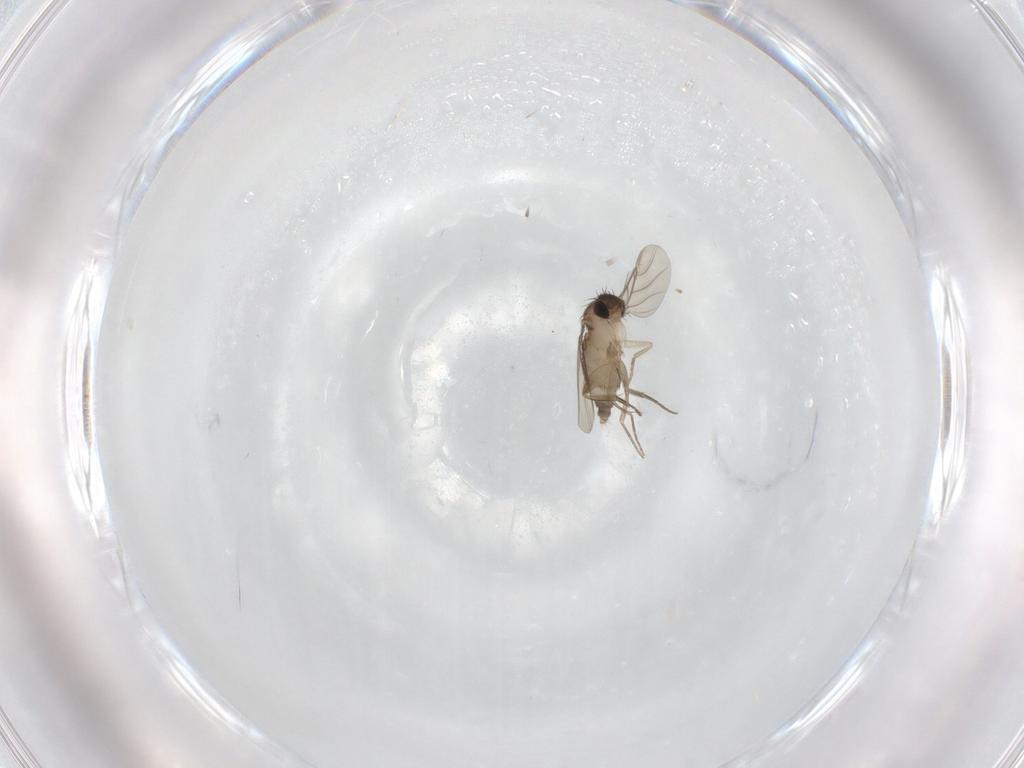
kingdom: Animalia
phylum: Arthropoda
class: Insecta
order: Diptera
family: Phoridae
